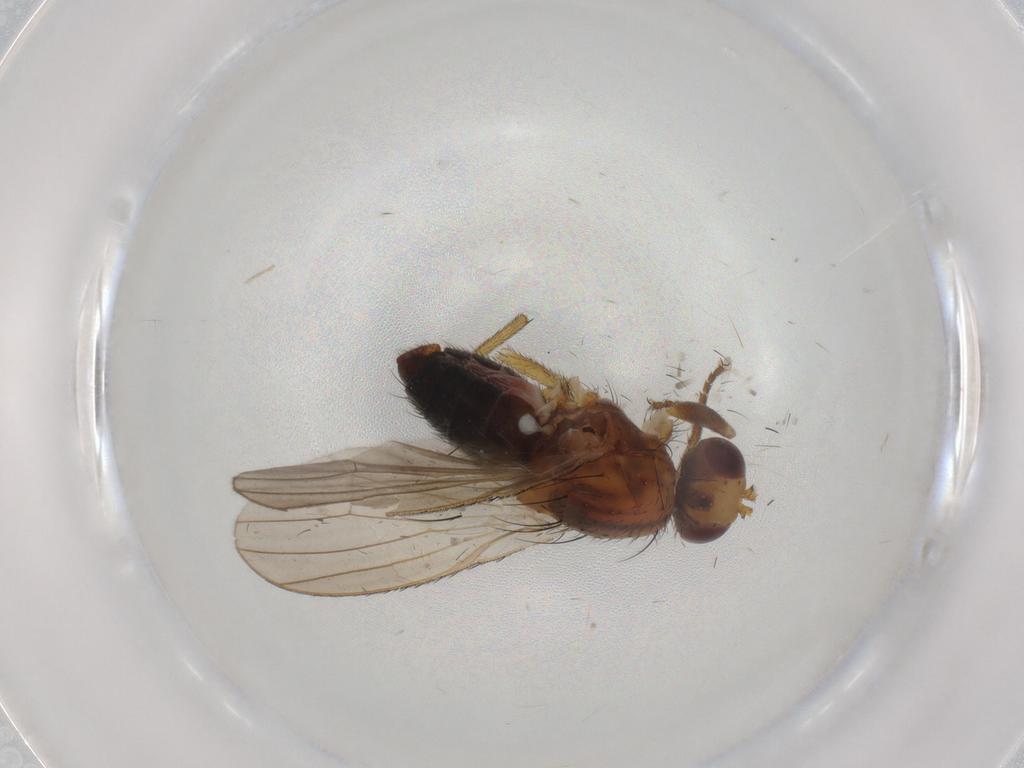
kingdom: Animalia
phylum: Arthropoda
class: Insecta
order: Diptera
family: Heleomyzidae
